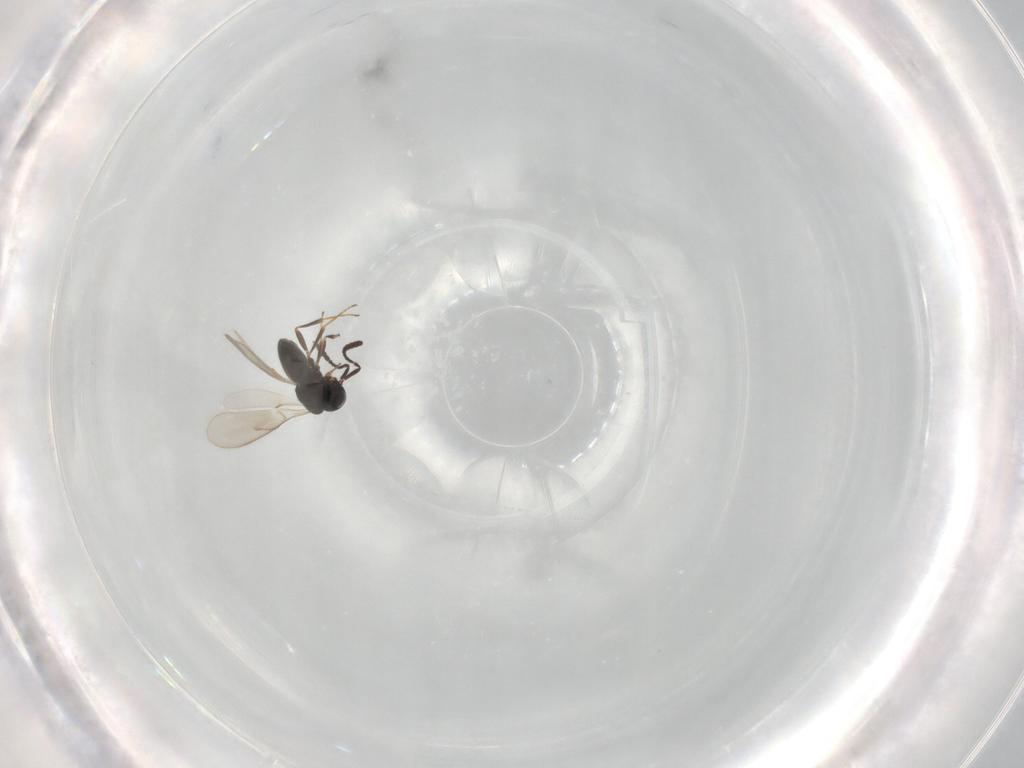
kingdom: Animalia
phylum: Arthropoda
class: Insecta
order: Hymenoptera
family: Scelionidae
